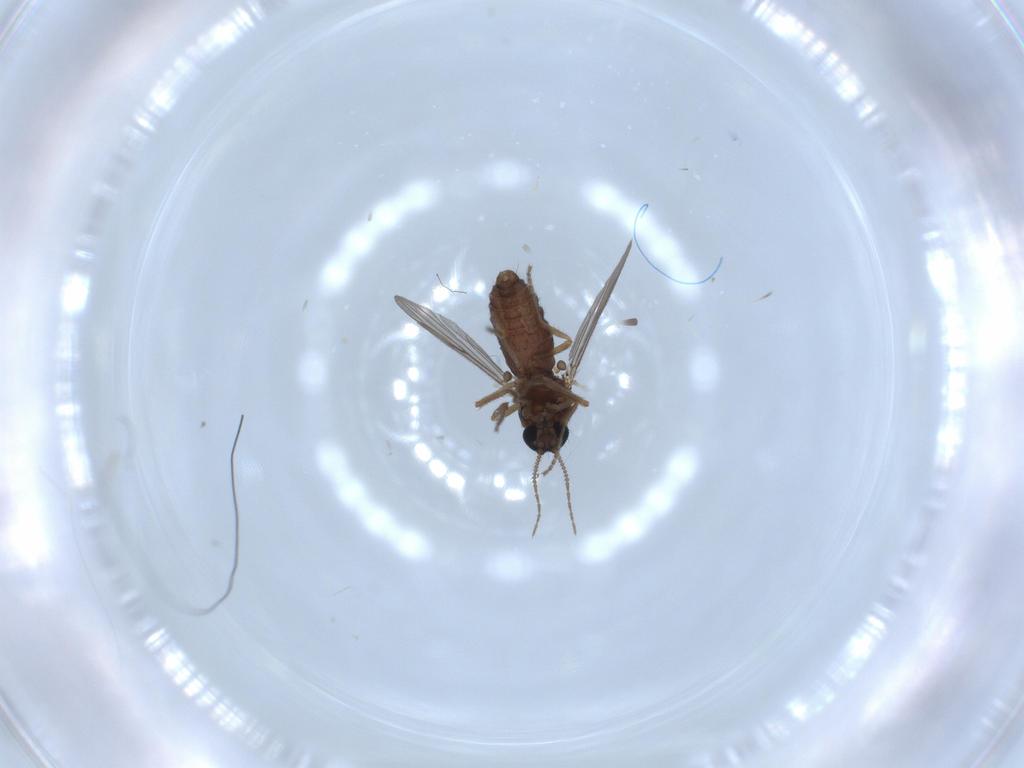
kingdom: Animalia
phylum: Arthropoda
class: Insecta
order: Diptera
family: Ceratopogonidae
